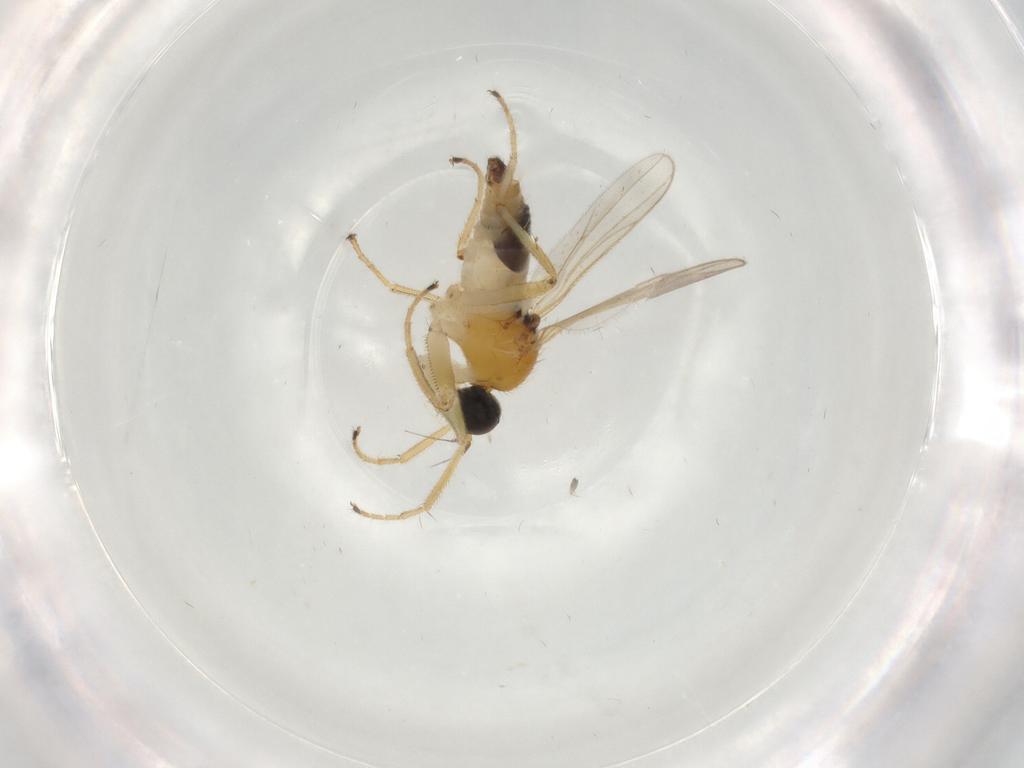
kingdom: Animalia
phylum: Arthropoda
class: Insecta
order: Diptera
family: Hybotidae
